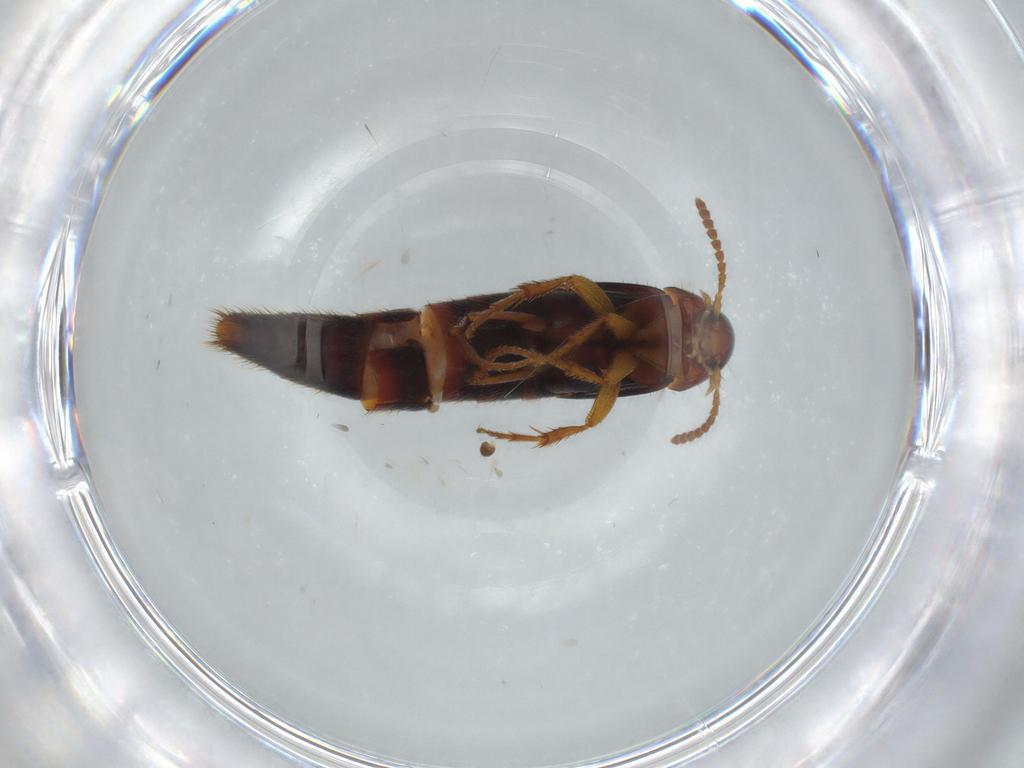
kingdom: Animalia
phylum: Arthropoda
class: Insecta
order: Coleoptera
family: Staphylinidae
